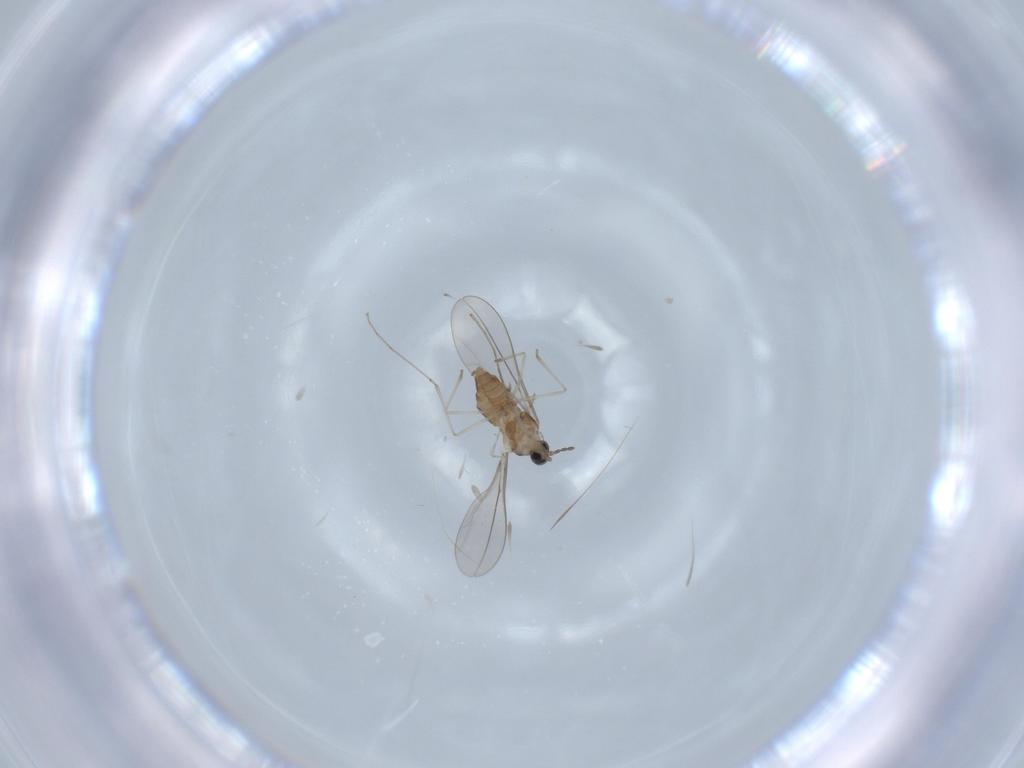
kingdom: Animalia
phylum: Arthropoda
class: Insecta
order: Diptera
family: Cecidomyiidae
